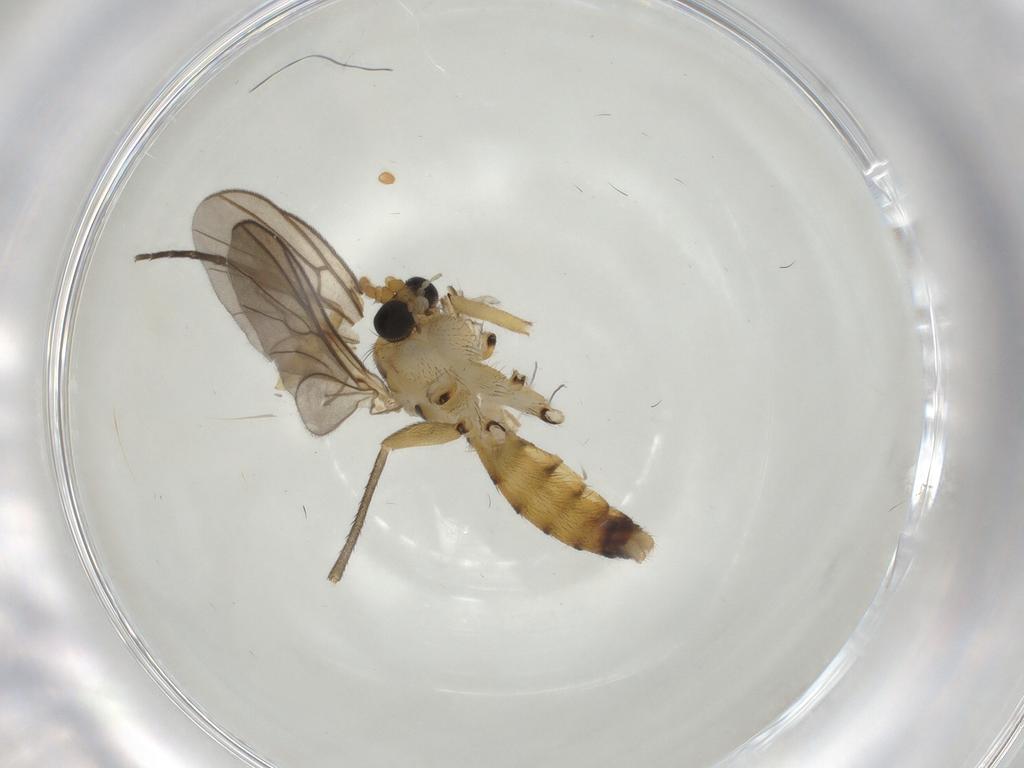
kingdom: Animalia
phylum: Arthropoda
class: Insecta
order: Diptera
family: Mycetophilidae
